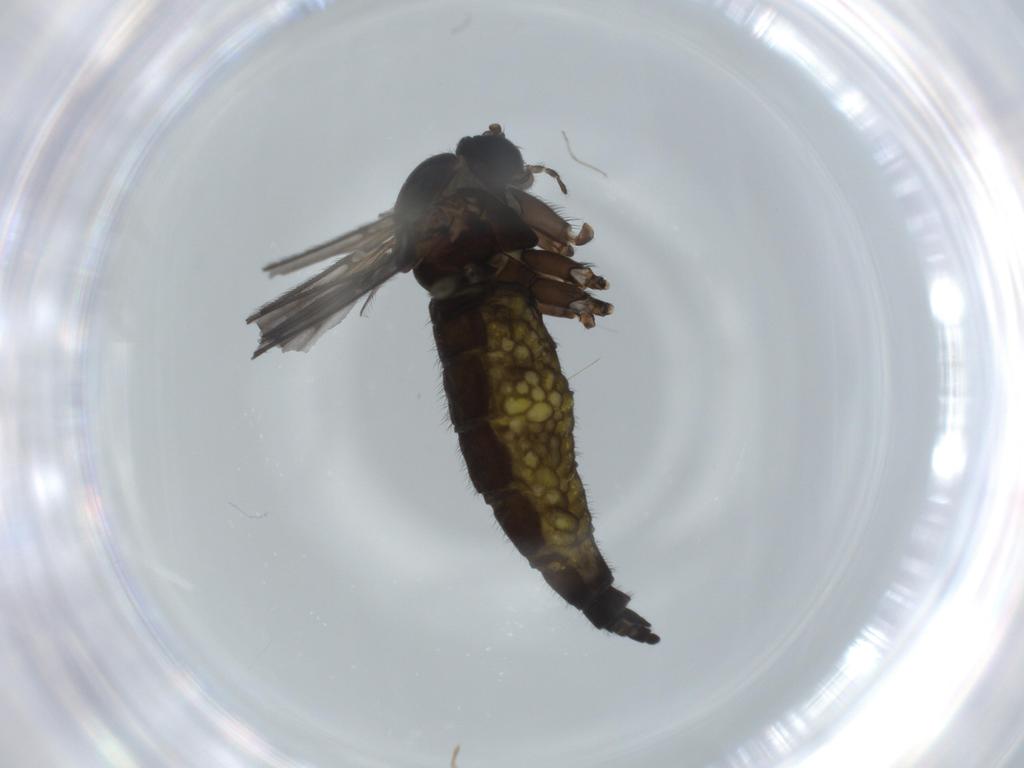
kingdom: Animalia
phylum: Arthropoda
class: Insecta
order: Diptera
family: Sciaridae
